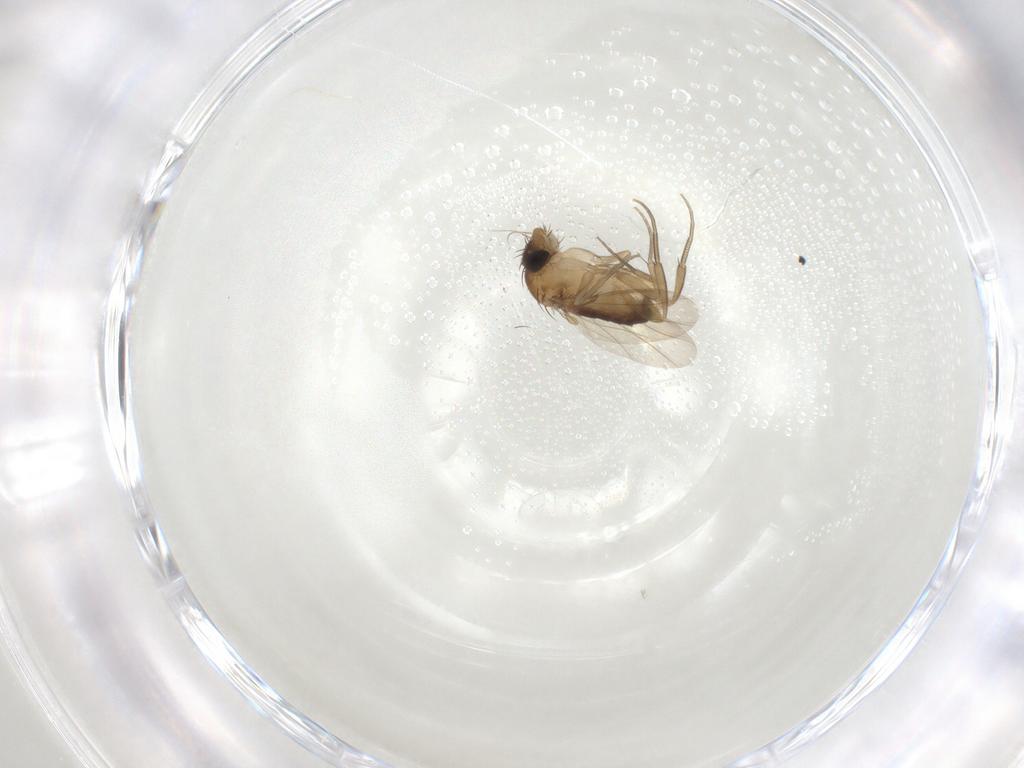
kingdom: Animalia
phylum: Arthropoda
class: Insecta
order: Diptera
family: Phoridae
